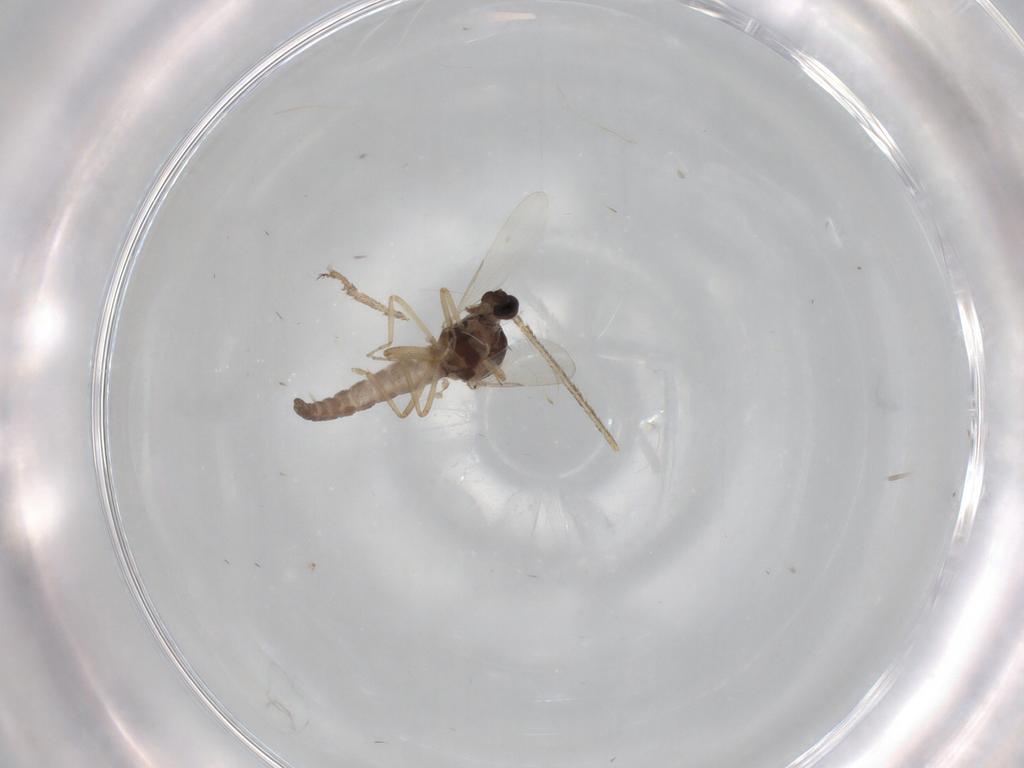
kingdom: Animalia
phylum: Arthropoda
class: Insecta
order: Diptera
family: Ceratopogonidae
